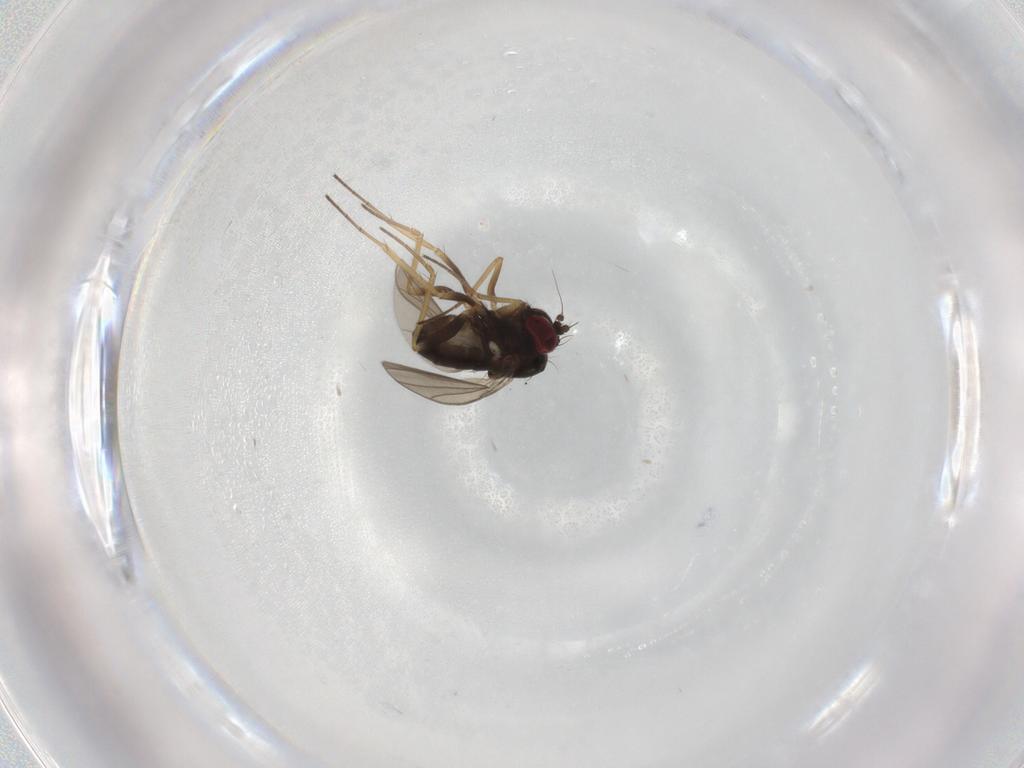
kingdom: Animalia
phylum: Arthropoda
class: Insecta
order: Diptera
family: Dolichopodidae
